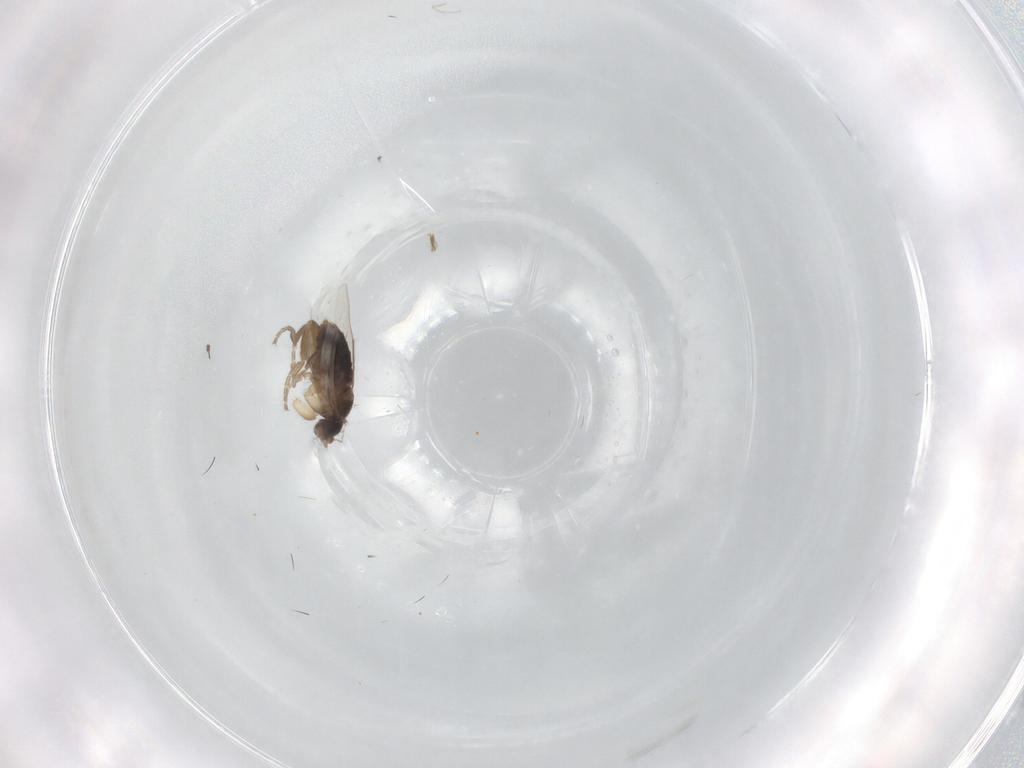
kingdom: Animalia
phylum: Arthropoda
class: Insecta
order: Diptera
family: Phoridae
